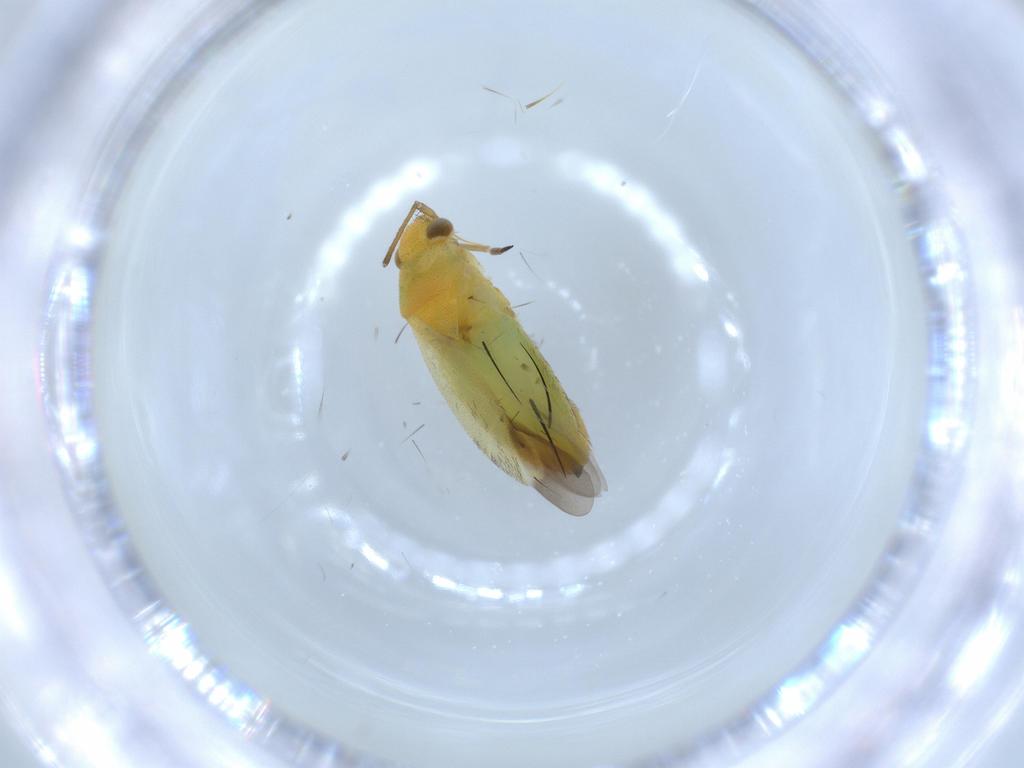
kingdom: Animalia
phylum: Arthropoda
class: Insecta
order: Hemiptera
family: Miridae
